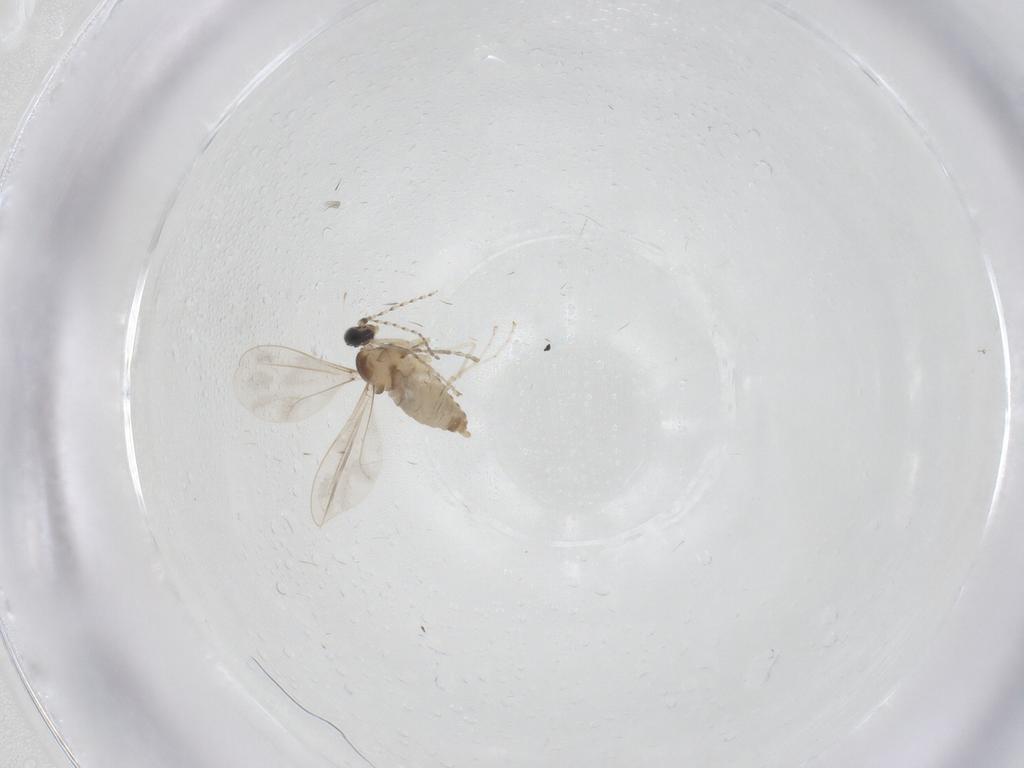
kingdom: Animalia
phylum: Arthropoda
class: Insecta
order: Diptera
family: Cecidomyiidae
